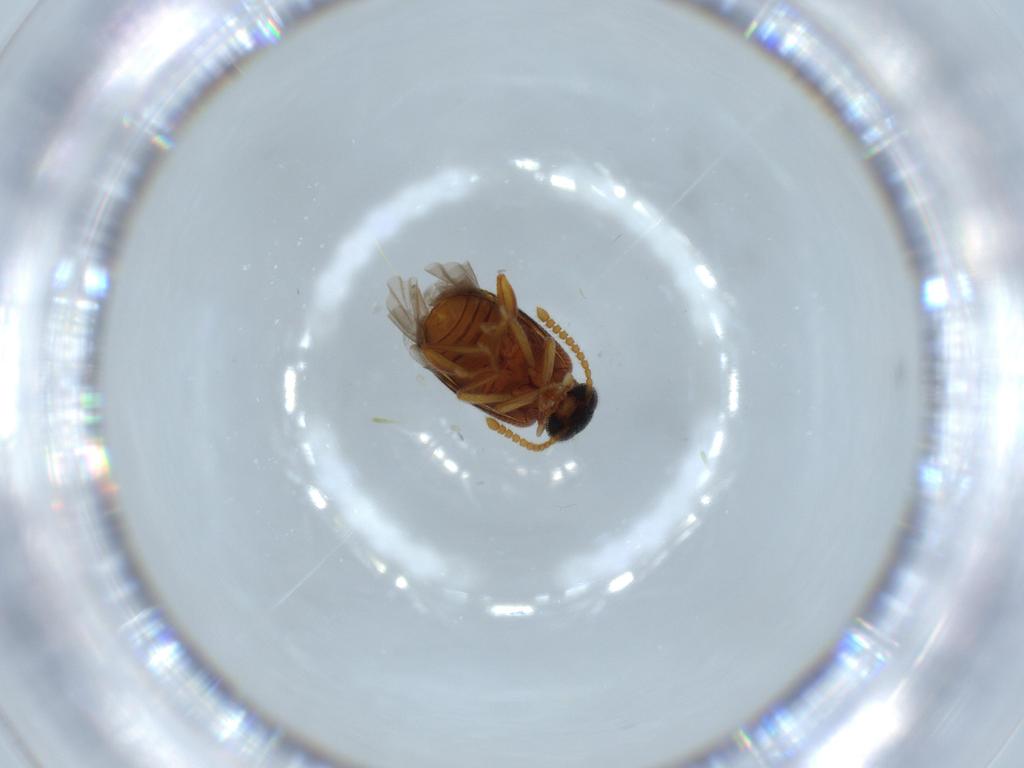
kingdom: Animalia
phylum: Arthropoda
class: Insecta
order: Coleoptera
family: Aderidae
